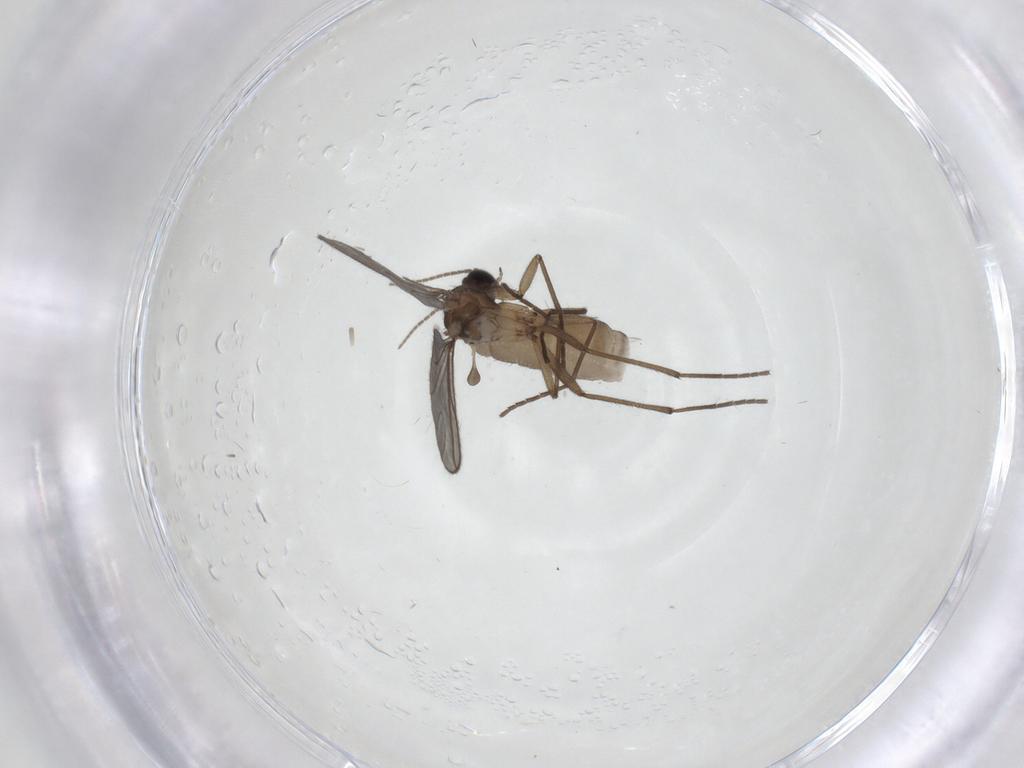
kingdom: Animalia
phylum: Arthropoda
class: Insecta
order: Diptera
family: Sciaridae
